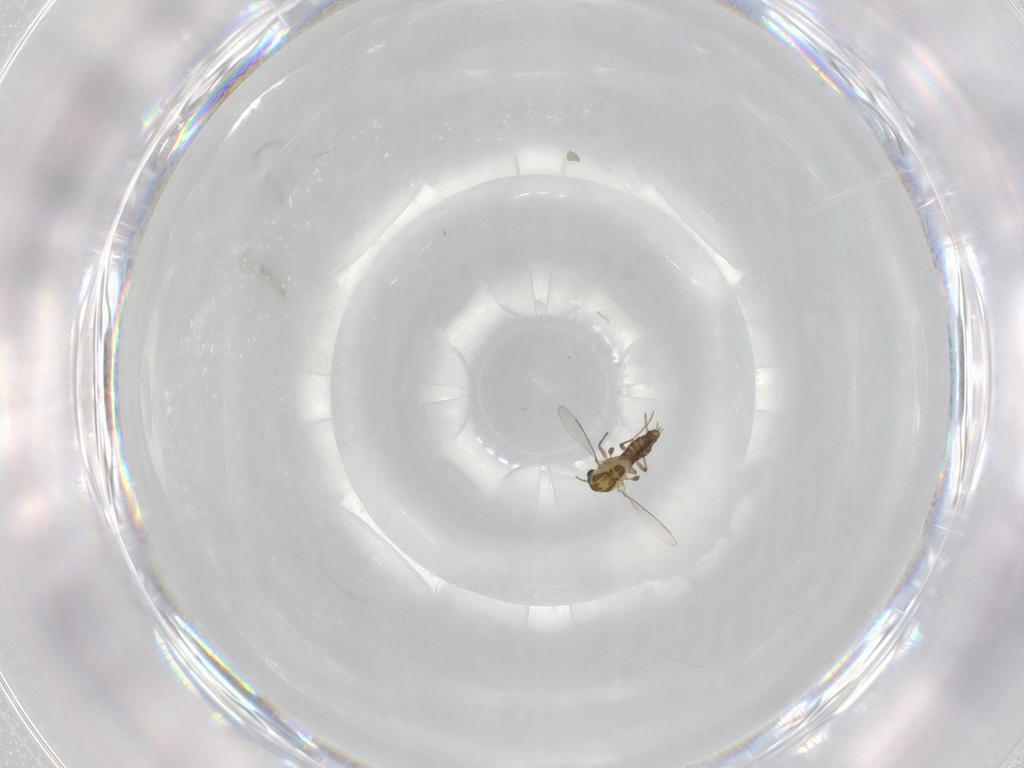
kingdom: Animalia
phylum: Arthropoda
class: Insecta
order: Diptera
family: Chironomidae
